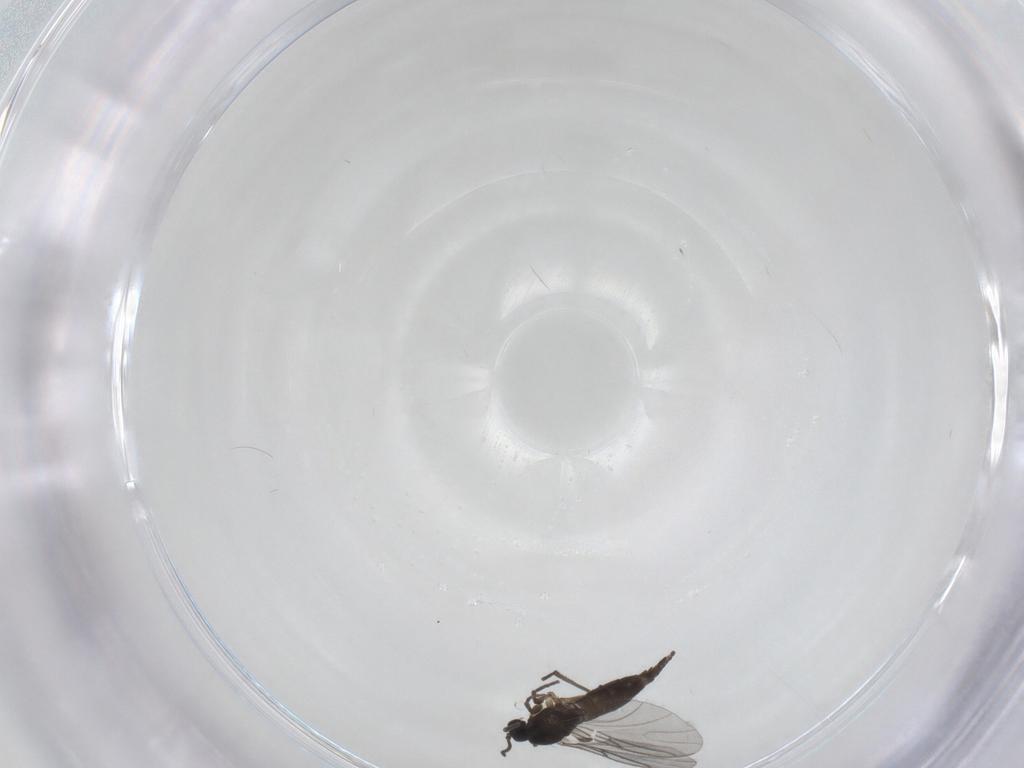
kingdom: Animalia
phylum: Arthropoda
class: Insecta
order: Diptera
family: Sciaridae
